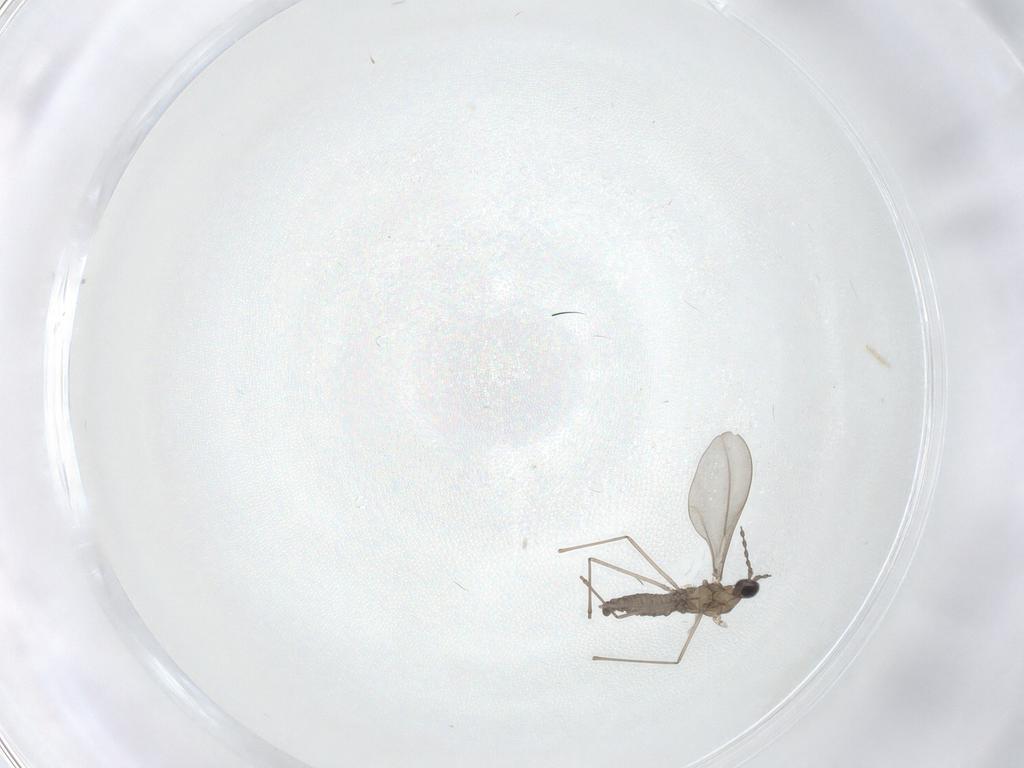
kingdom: Animalia
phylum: Arthropoda
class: Insecta
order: Diptera
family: Cecidomyiidae
